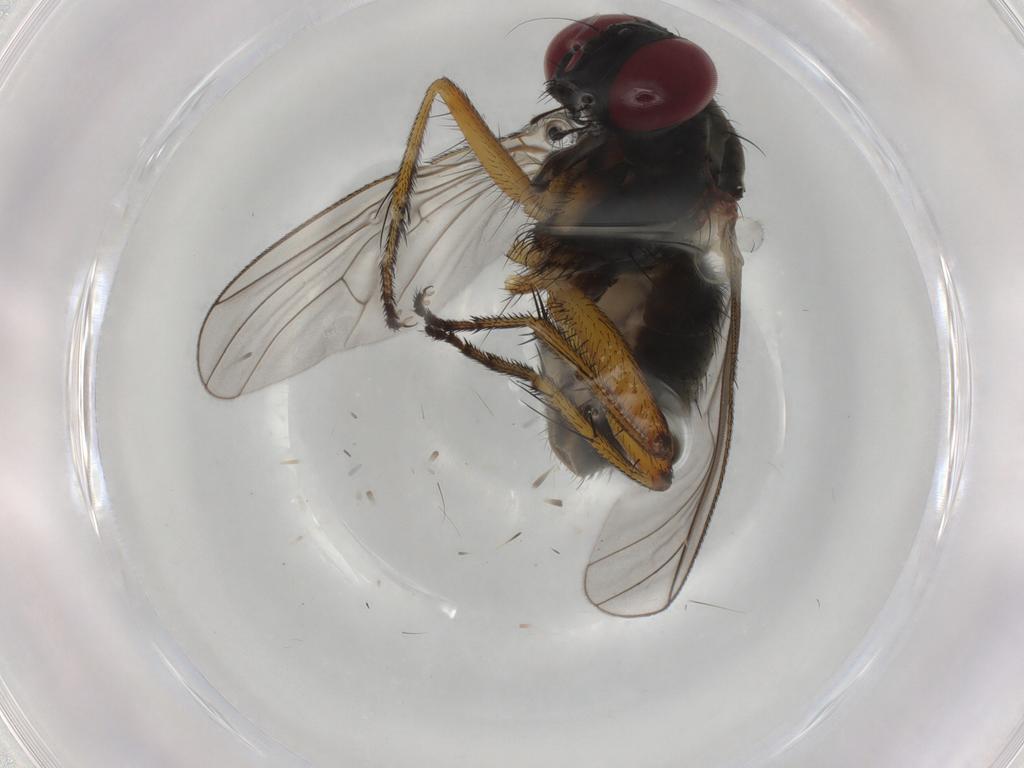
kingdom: Animalia
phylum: Arthropoda
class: Insecta
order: Diptera
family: Muscidae
